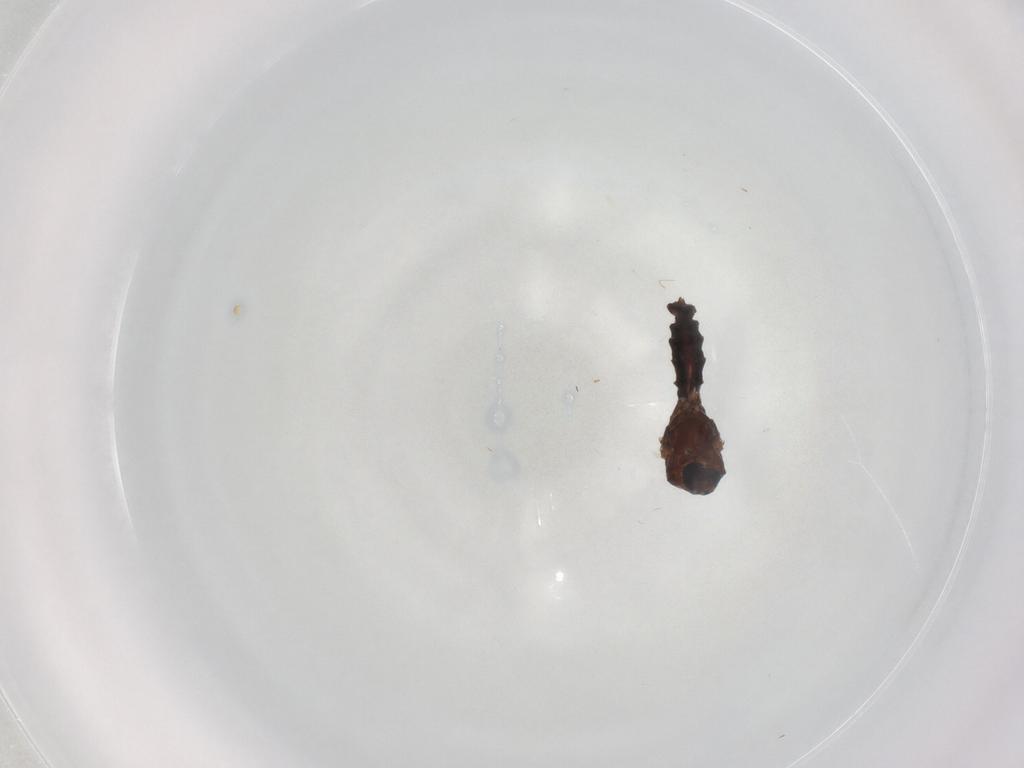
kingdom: Animalia
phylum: Arthropoda
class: Insecta
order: Diptera
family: Ceratopogonidae
